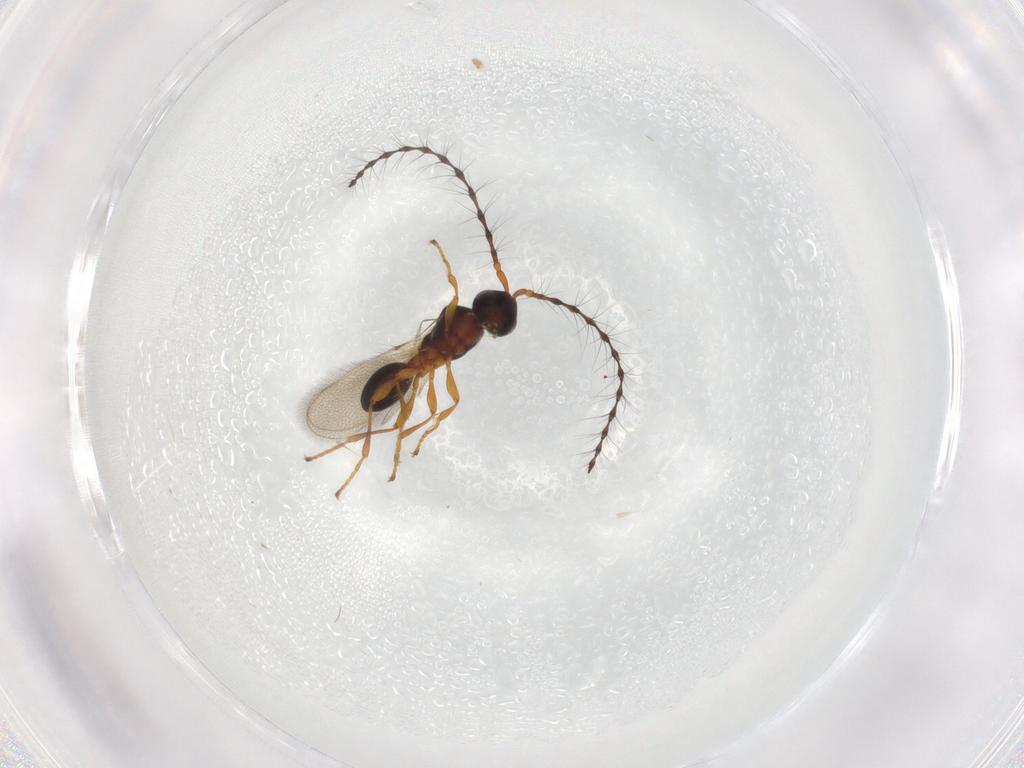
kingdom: Animalia
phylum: Arthropoda
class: Insecta
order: Hymenoptera
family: Diapriidae
